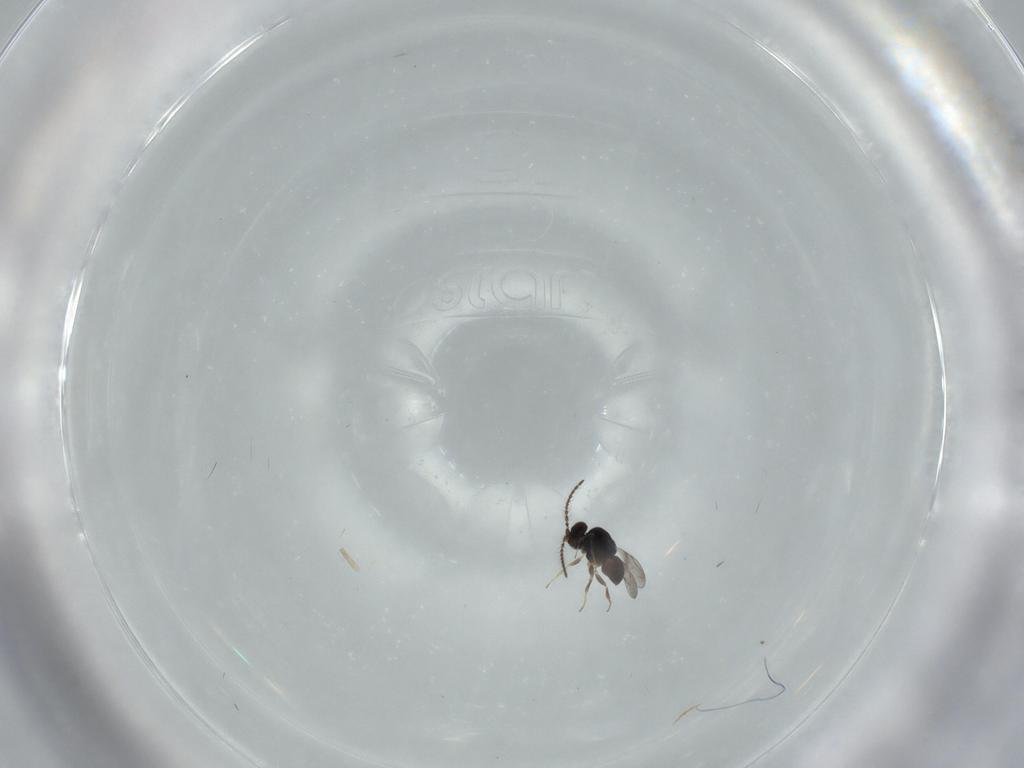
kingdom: Animalia
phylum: Arthropoda
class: Insecta
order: Hymenoptera
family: Ceraphronidae
